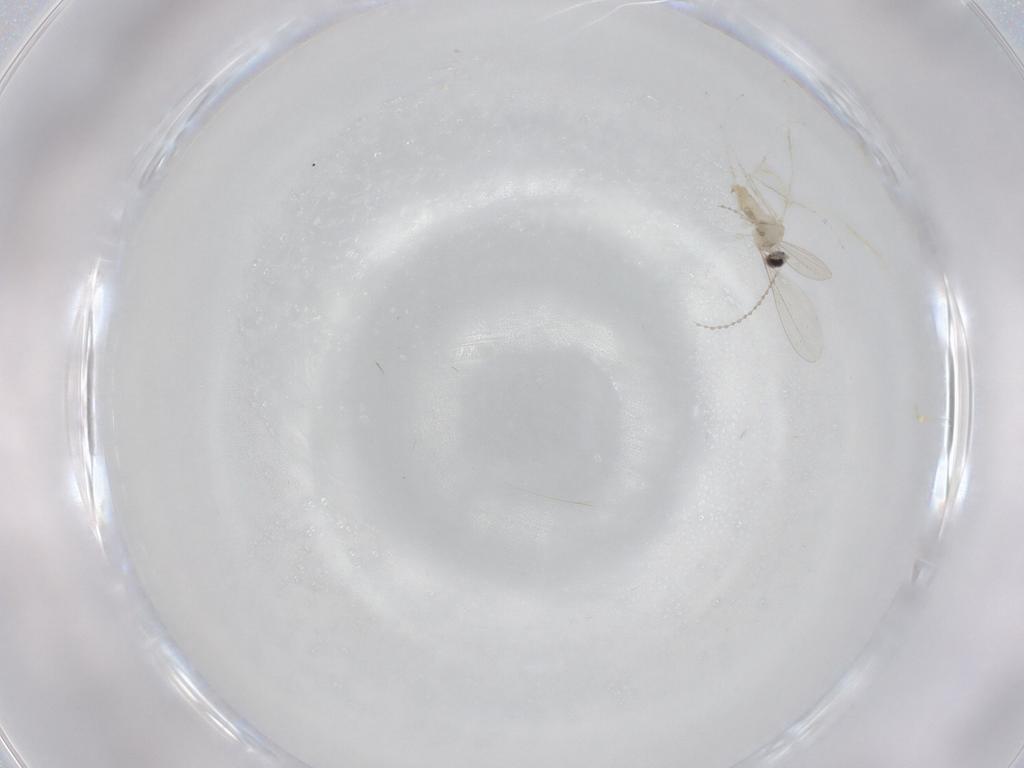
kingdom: Animalia
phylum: Arthropoda
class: Insecta
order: Diptera
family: Cecidomyiidae
